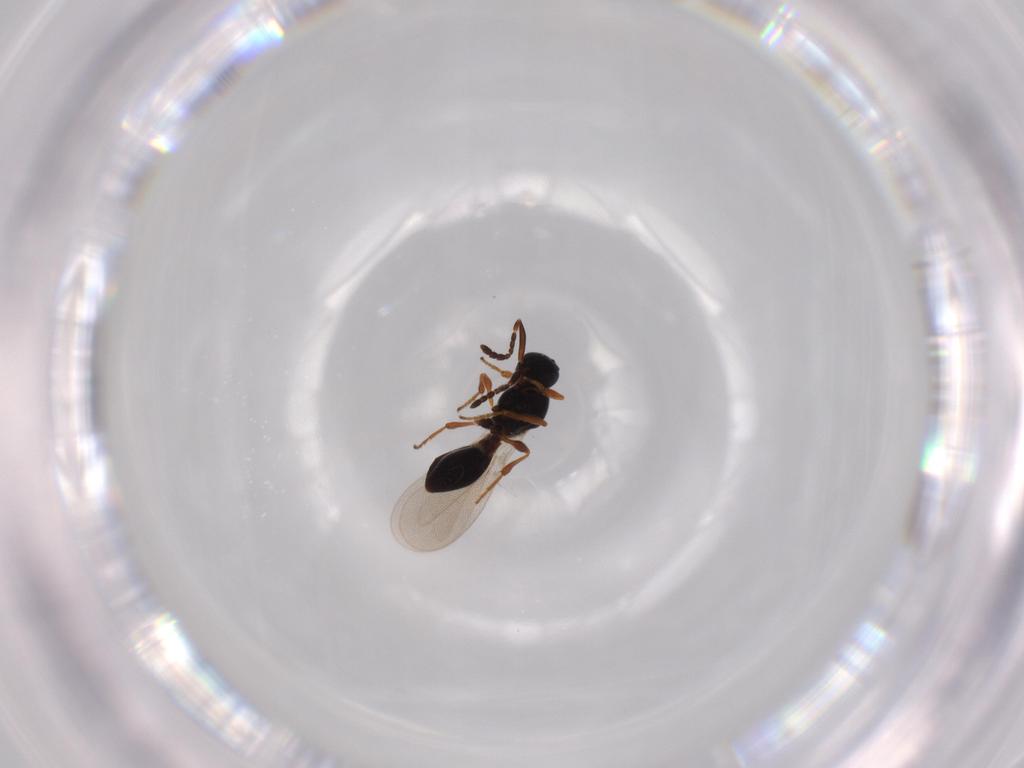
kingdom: Animalia
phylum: Arthropoda
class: Insecta
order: Hymenoptera
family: Platygastridae
